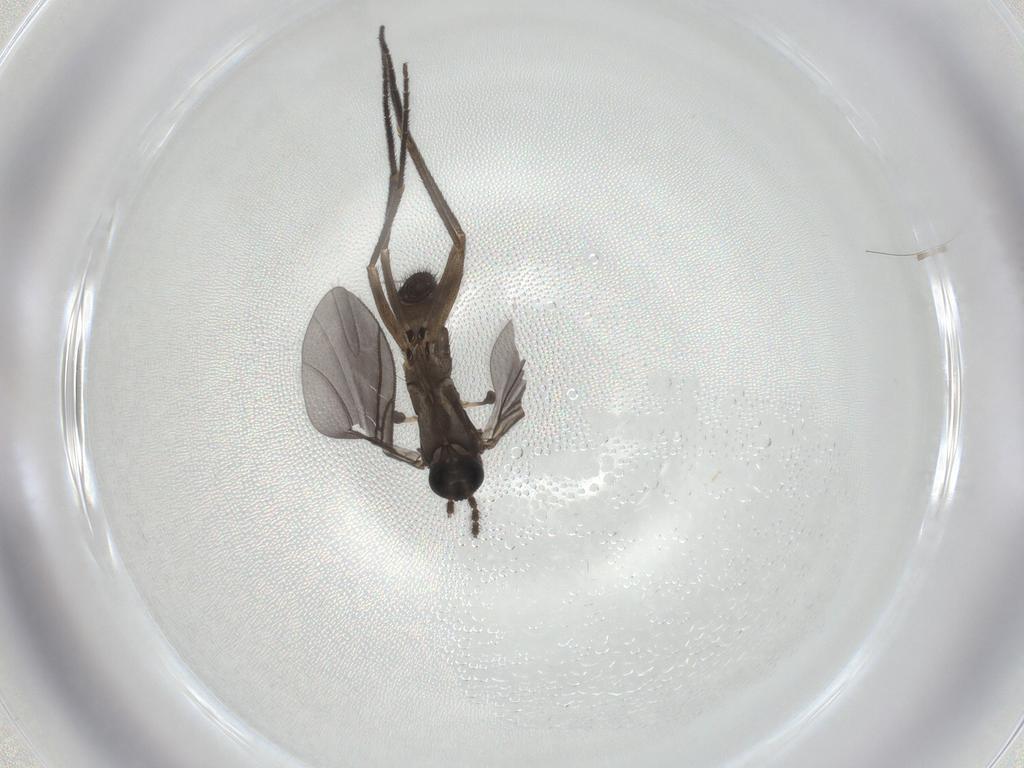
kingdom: Animalia
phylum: Arthropoda
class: Insecta
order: Diptera
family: Sciaridae
